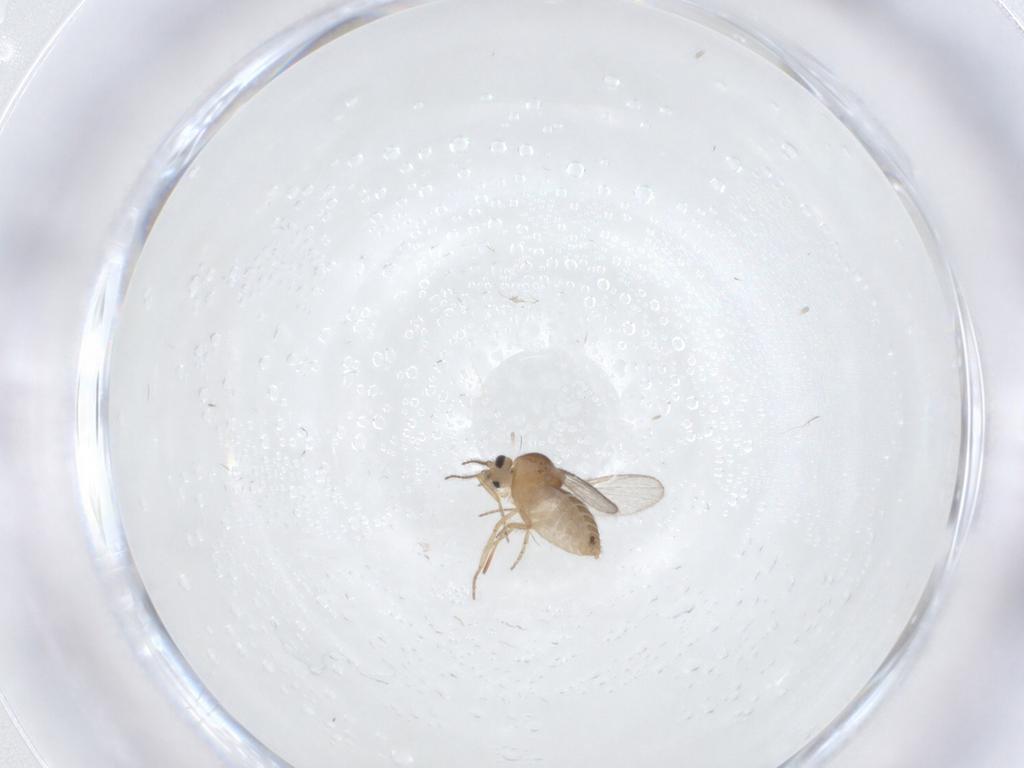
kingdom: Animalia
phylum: Arthropoda
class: Insecta
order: Diptera
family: Ceratopogonidae
